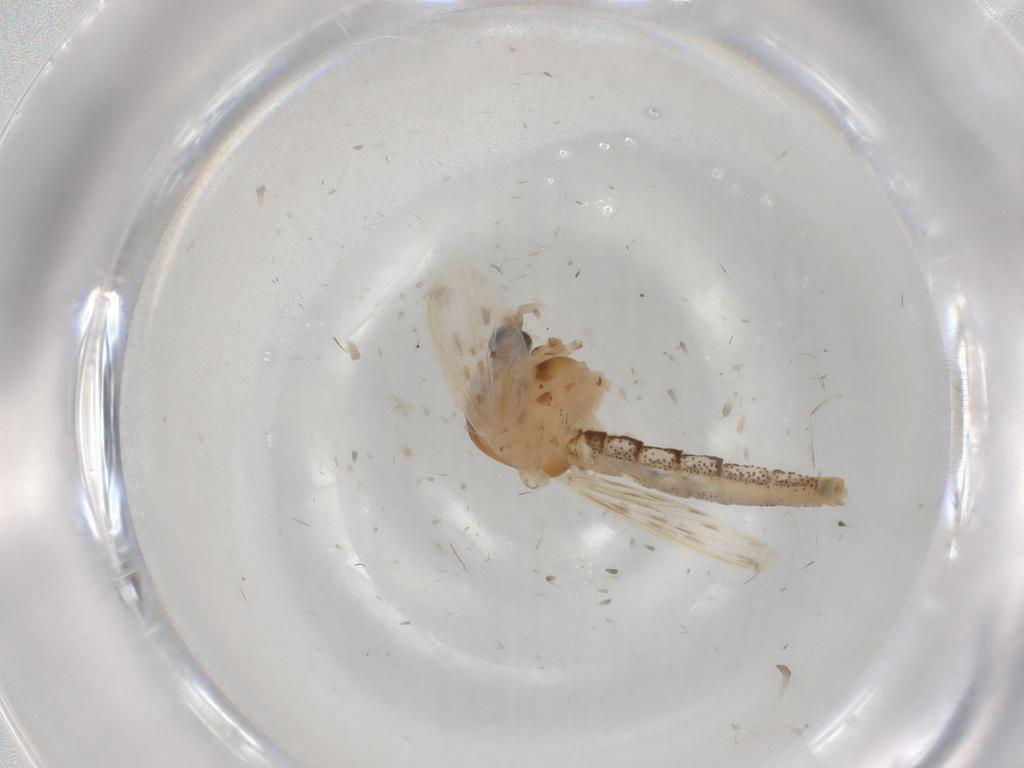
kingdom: Animalia
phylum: Arthropoda
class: Insecta
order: Diptera
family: Chaoboridae
